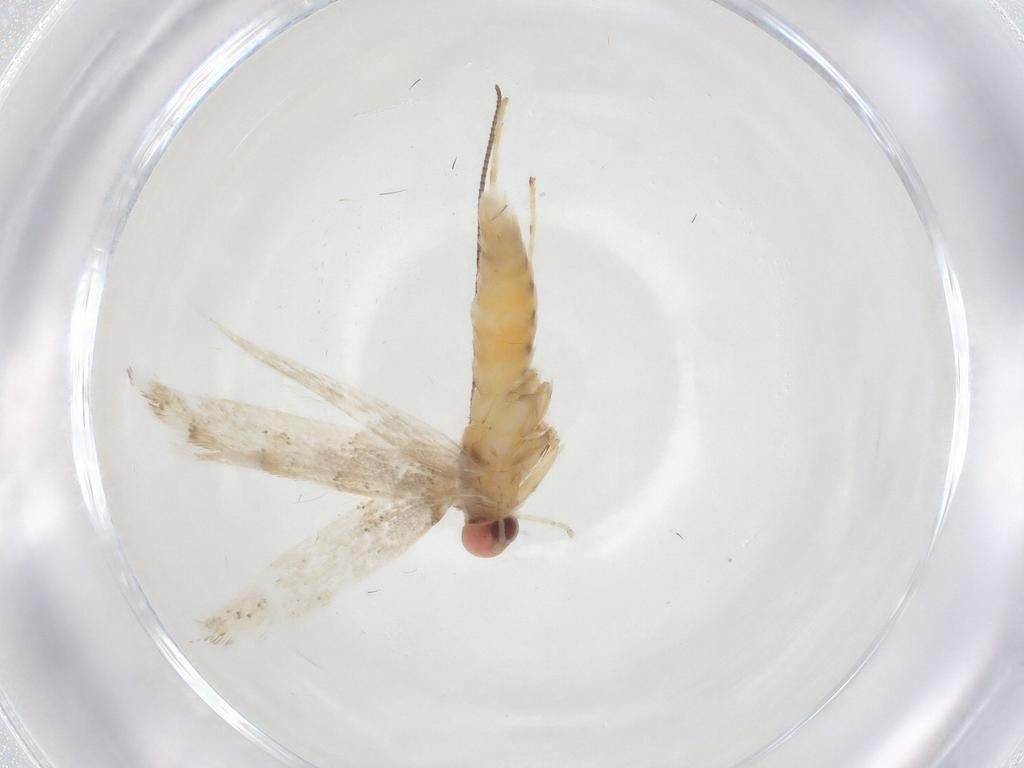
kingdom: Animalia
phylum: Arthropoda
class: Insecta
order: Lepidoptera
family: Gracillariidae
